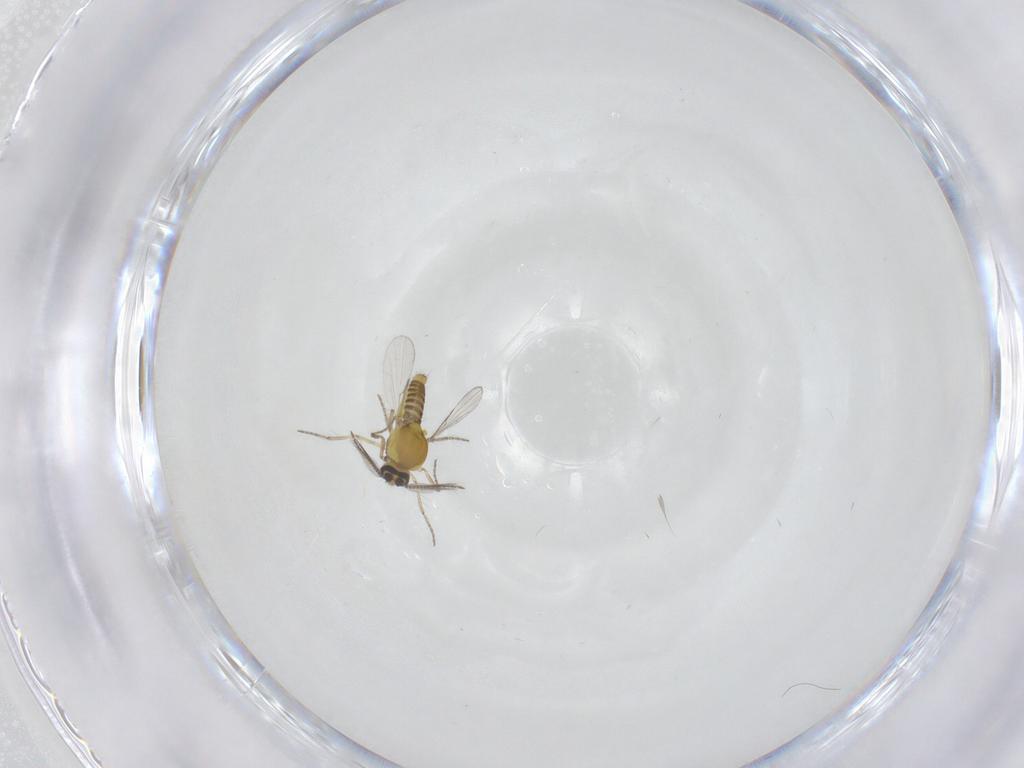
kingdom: Animalia
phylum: Arthropoda
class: Insecta
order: Diptera
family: Ceratopogonidae
